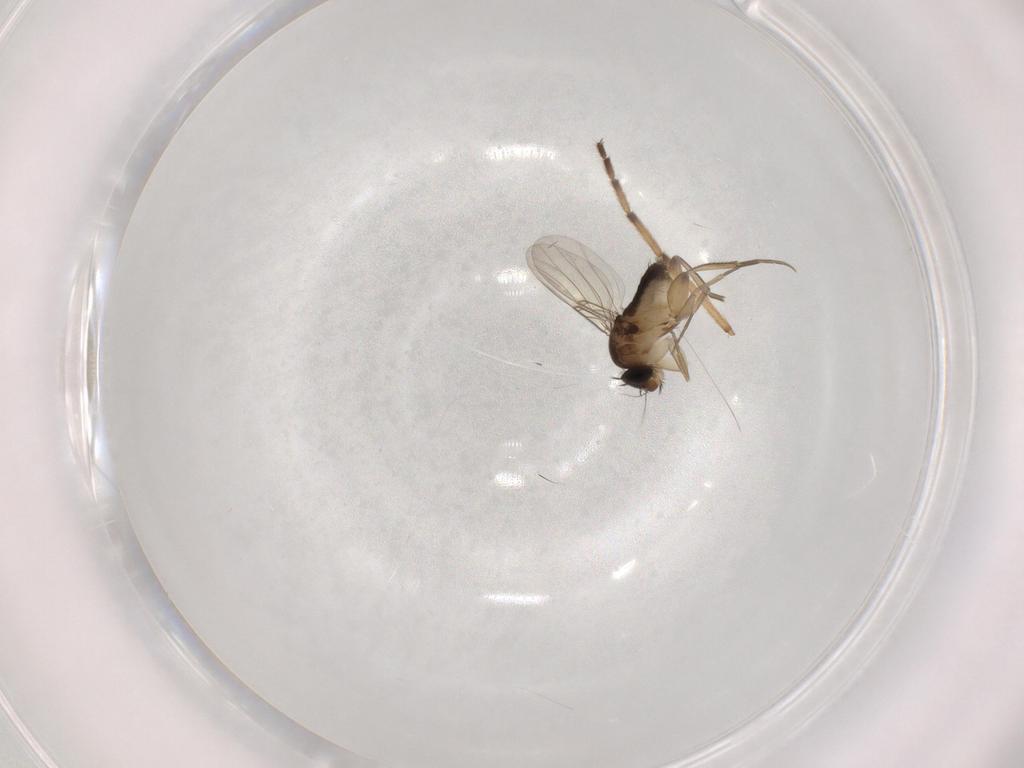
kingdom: Animalia
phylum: Arthropoda
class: Insecta
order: Diptera
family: Phoridae
